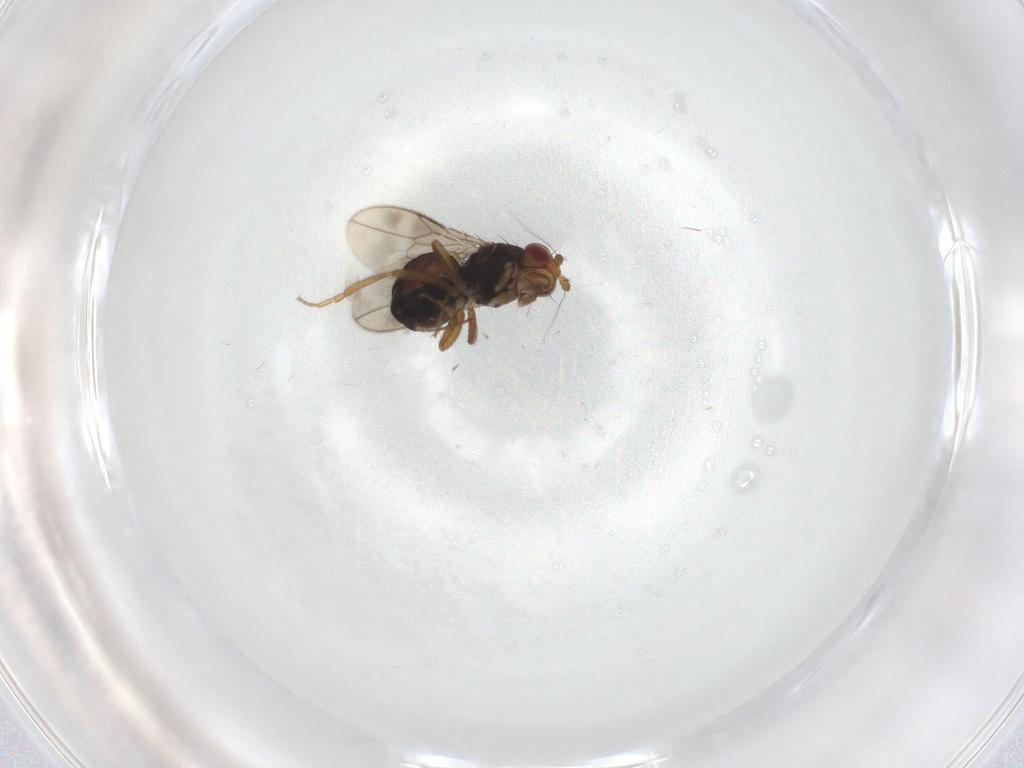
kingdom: Animalia
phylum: Arthropoda
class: Insecta
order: Diptera
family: Sphaeroceridae
